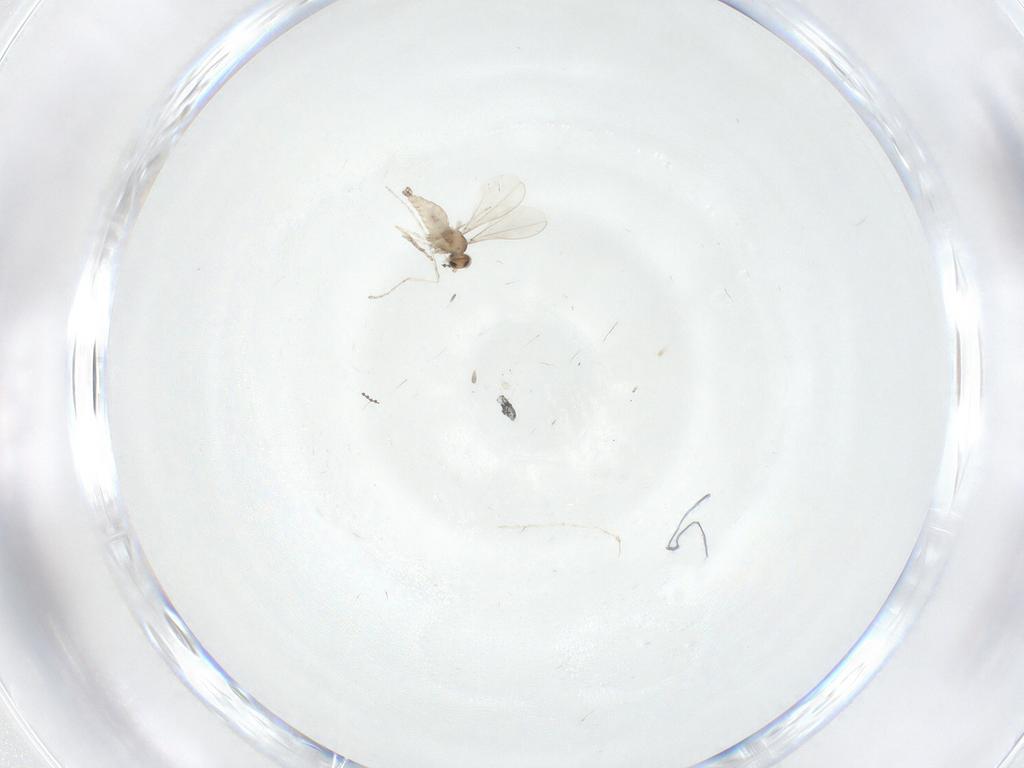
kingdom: Animalia
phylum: Arthropoda
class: Insecta
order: Diptera
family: Cecidomyiidae
